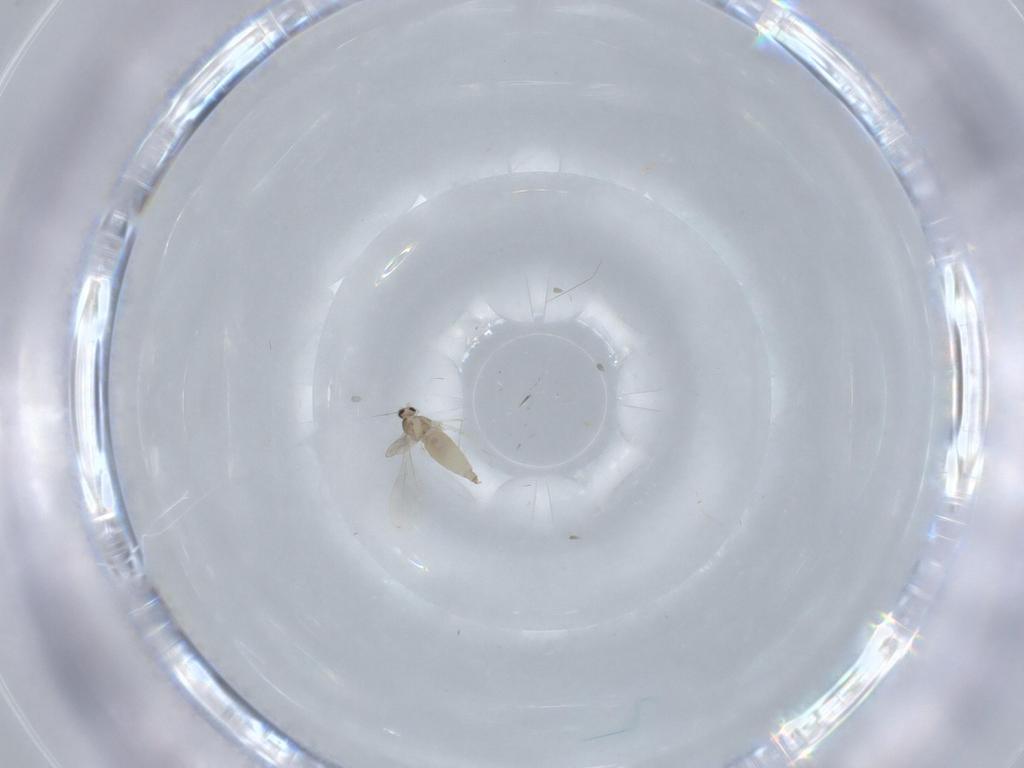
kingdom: Animalia
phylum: Arthropoda
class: Insecta
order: Diptera
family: Cecidomyiidae
